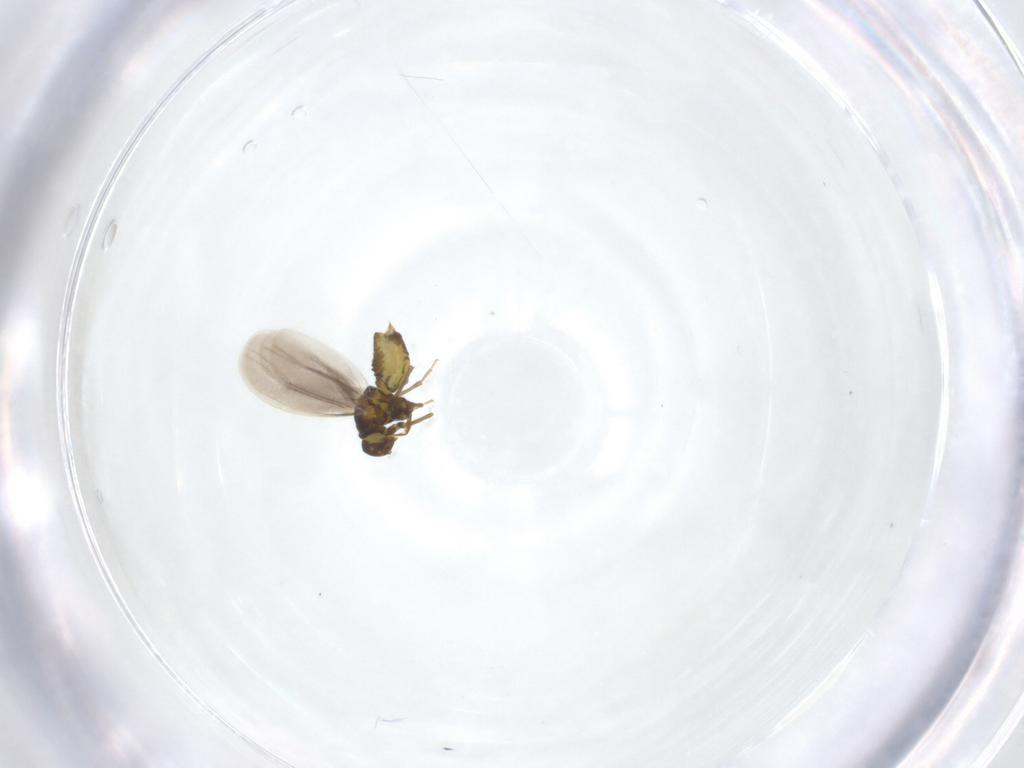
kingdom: Animalia
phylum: Arthropoda
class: Insecta
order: Hemiptera
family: Aleyrodidae
